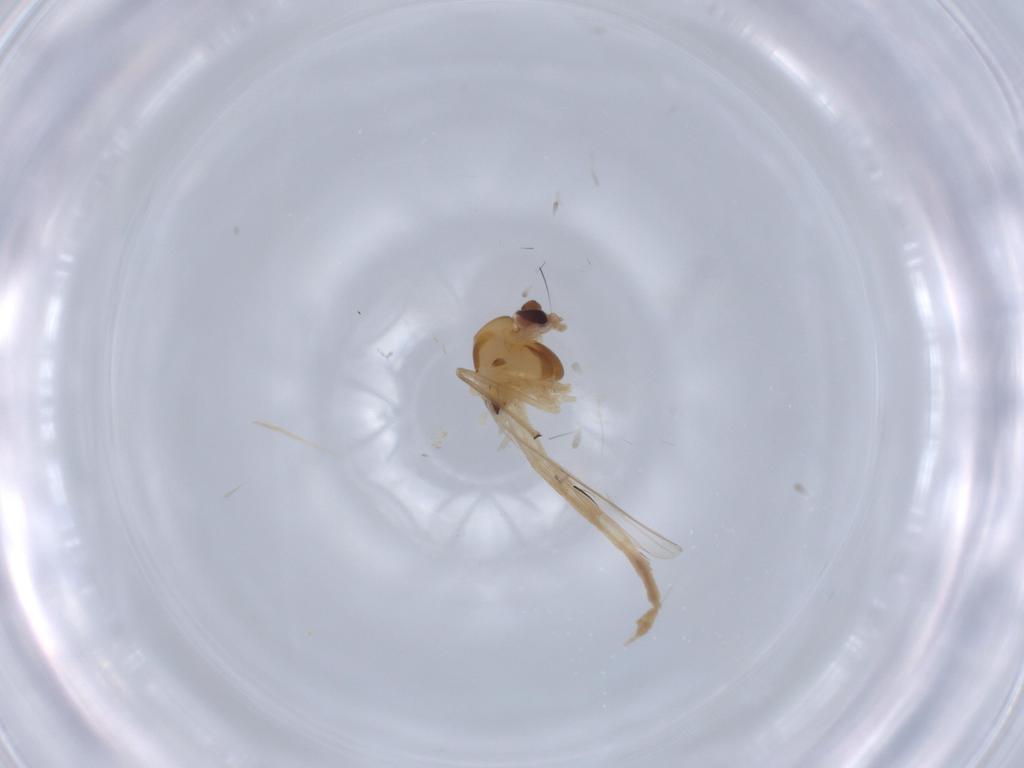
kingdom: Animalia
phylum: Arthropoda
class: Insecta
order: Diptera
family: Chironomidae
